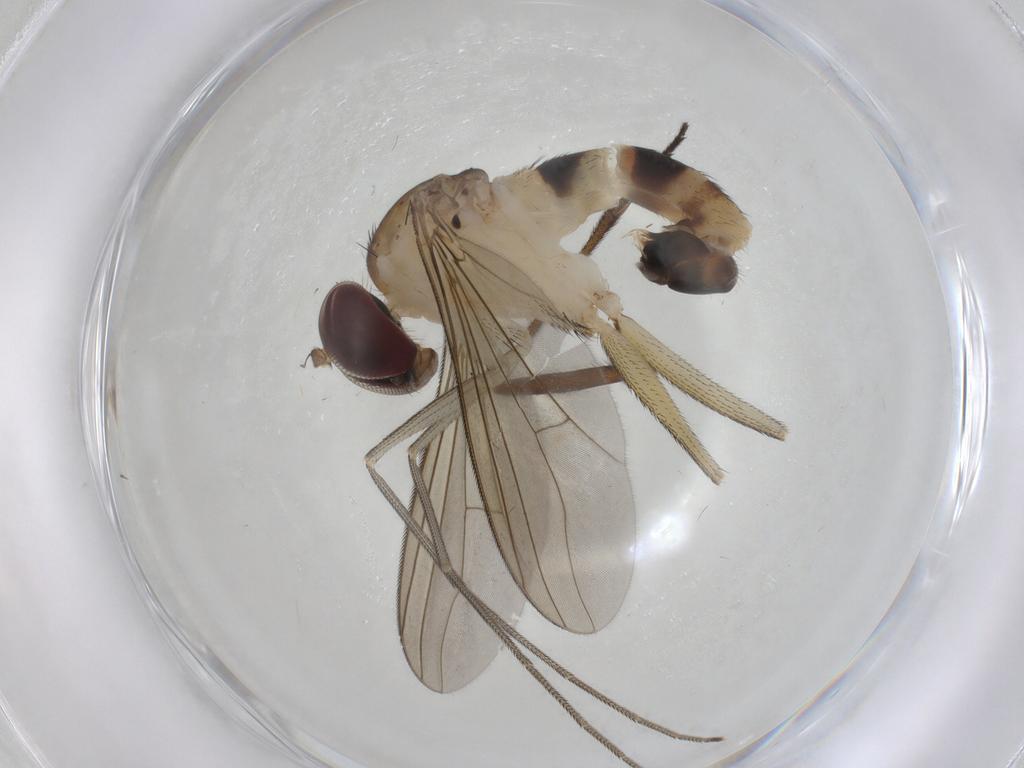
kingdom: Animalia
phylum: Arthropoda
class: Insecta
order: Diptera
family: Dolichopodidae
